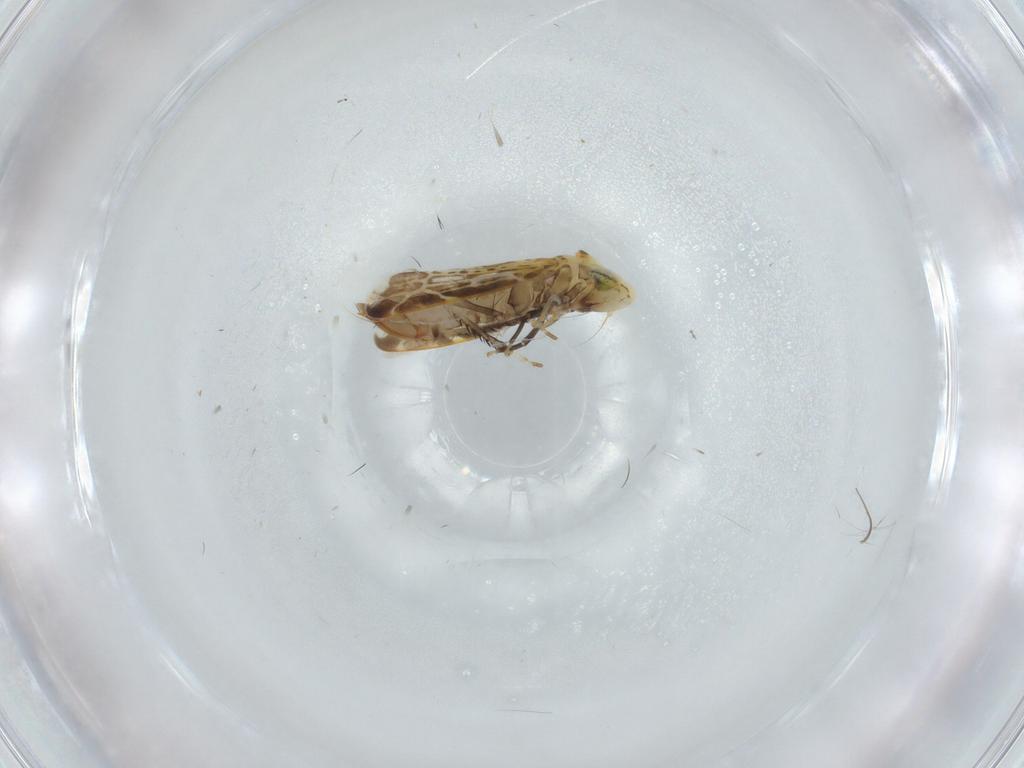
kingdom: Animalia
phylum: Arthropoda
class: Insecta
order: Hemiptera
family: Cicadellidae
